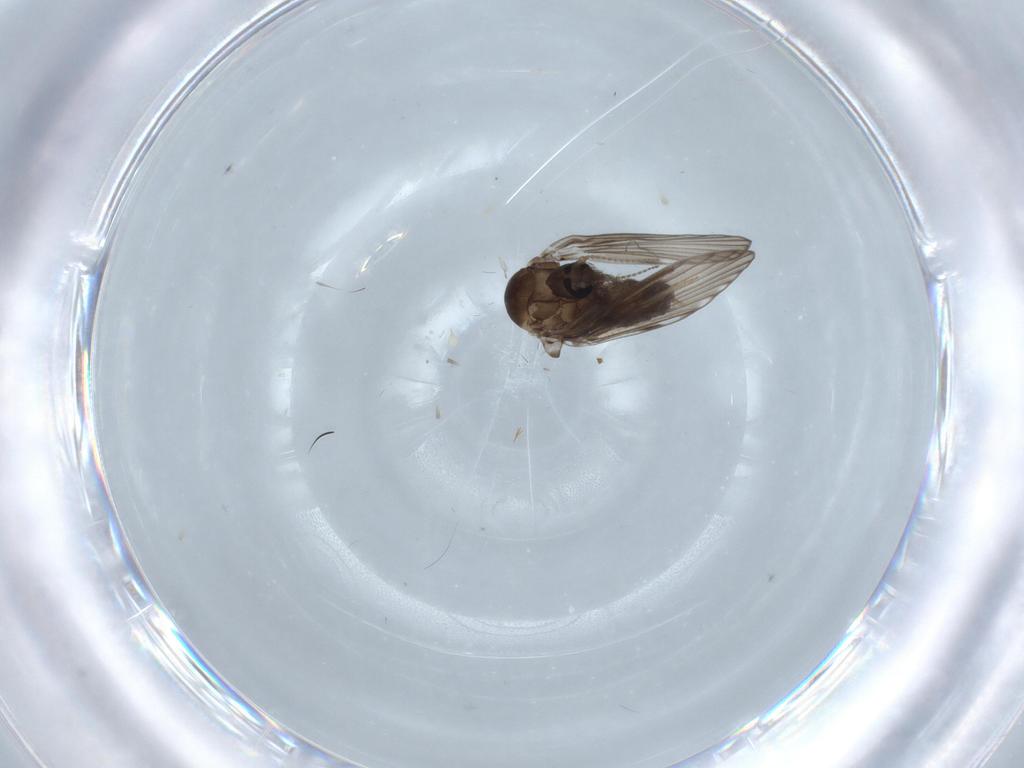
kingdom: Animalia
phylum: Arthropoda
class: Insecta
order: Diptera
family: Cecidomyiidae
